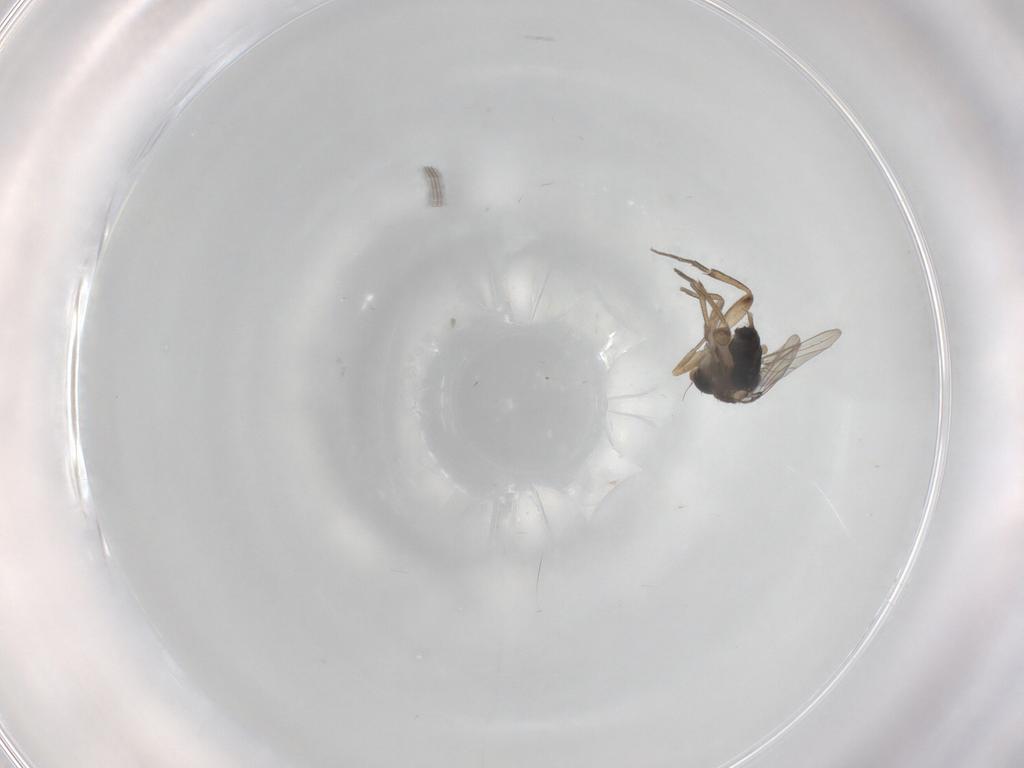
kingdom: Animalia
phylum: Arthropoda
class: Insecta
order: Diptera
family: Phoridae
